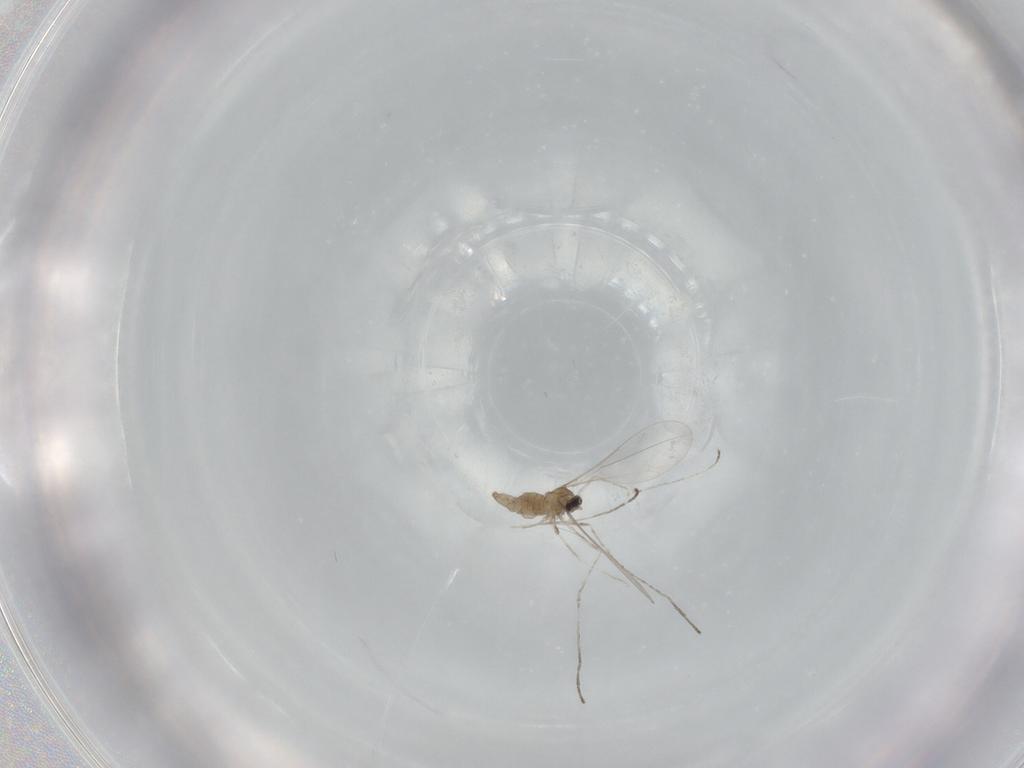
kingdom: Animalia
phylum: Arthropoda
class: Insecta
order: Diptera
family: Cecidomyiidae
